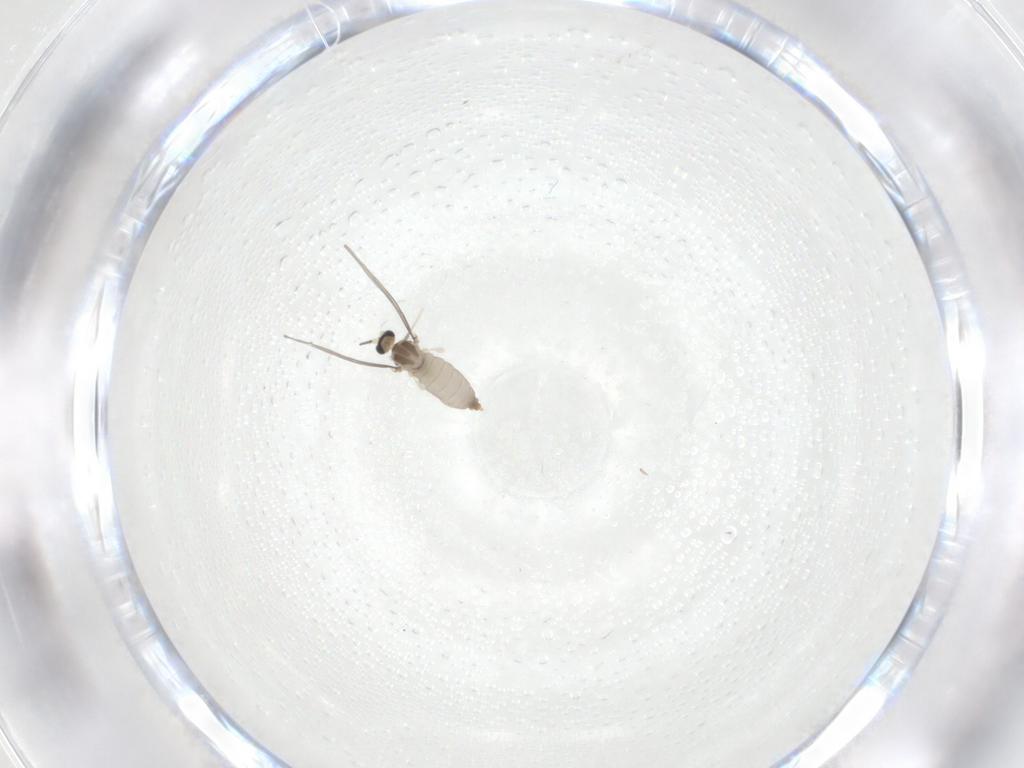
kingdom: Animalia
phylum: Arthropoda
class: Insecta
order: Diptera
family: Cecidomyiidae
